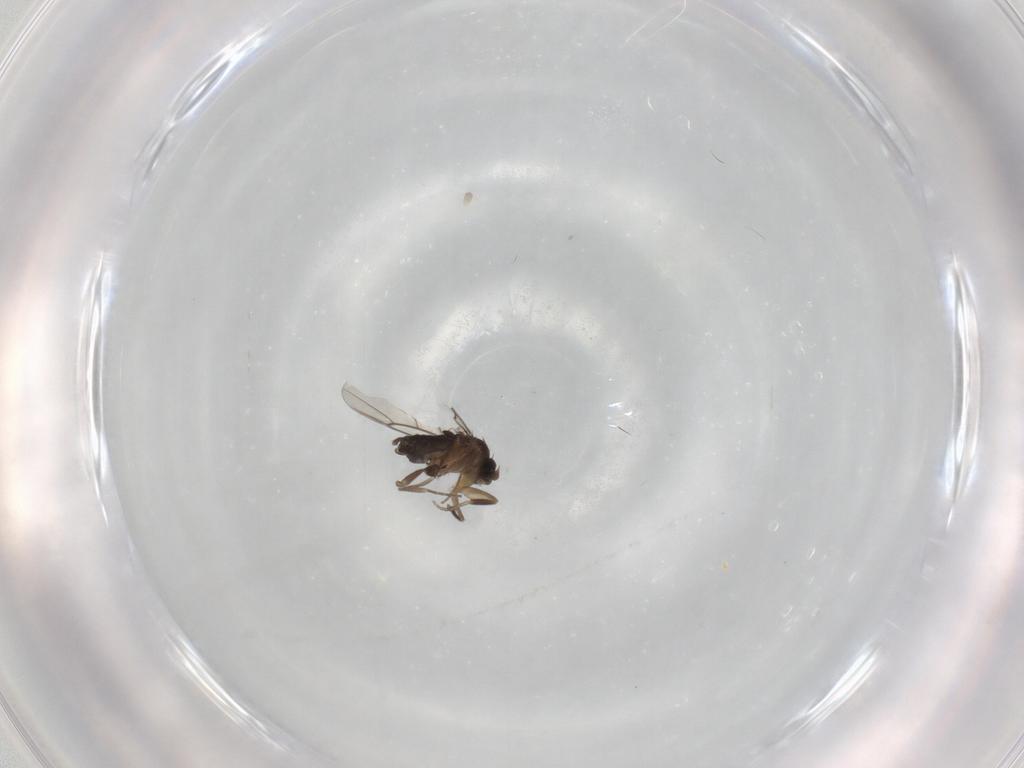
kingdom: Animalia
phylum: Arthropoda
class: Insecta
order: Diptera
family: Phoridae
